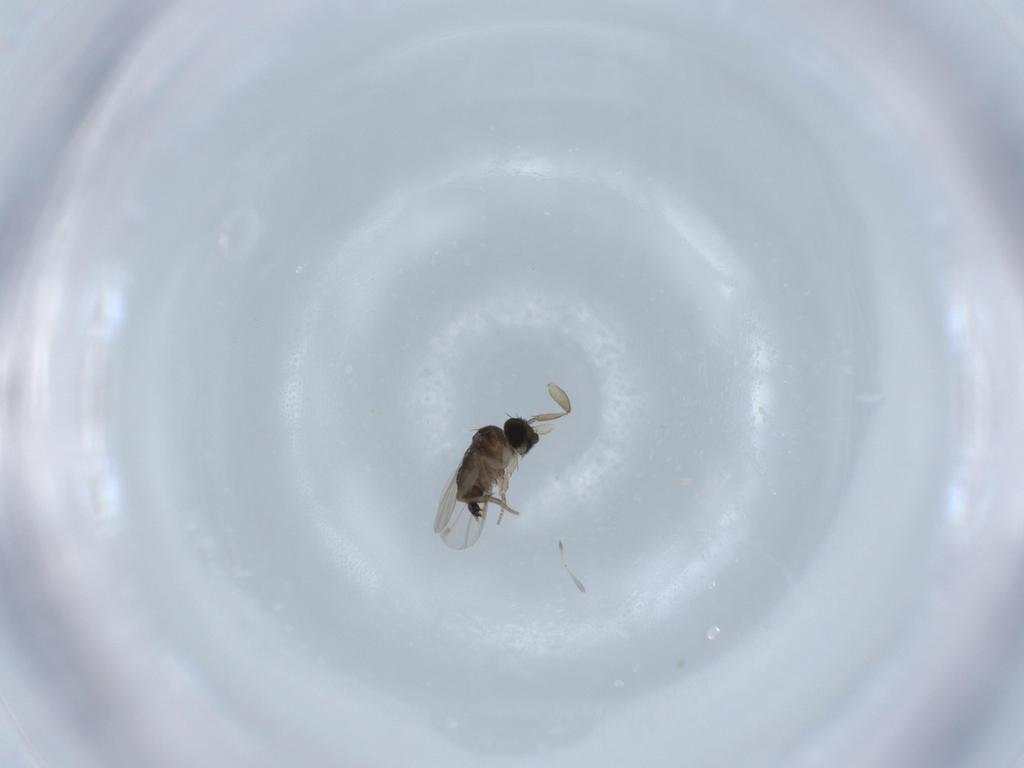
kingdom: Animalia
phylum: Arthropoda
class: Insecta
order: Diptera
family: Phoridae
